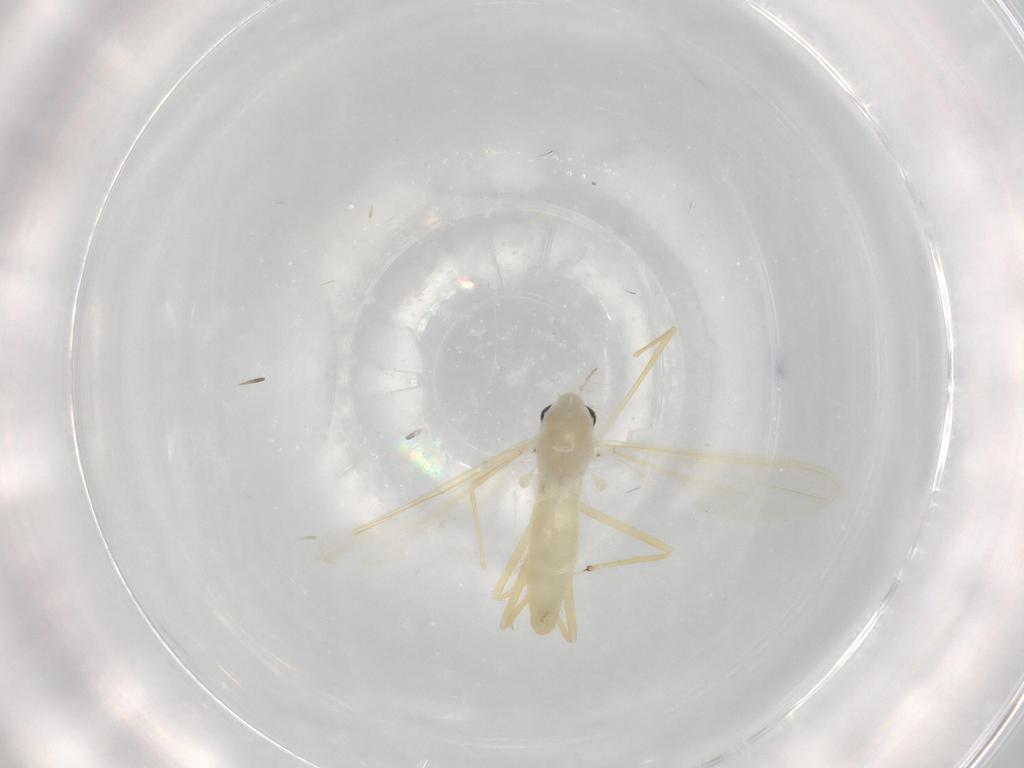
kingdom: Animalia
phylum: Arthropoda
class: Insecta
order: Diptera
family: Chironomidae
